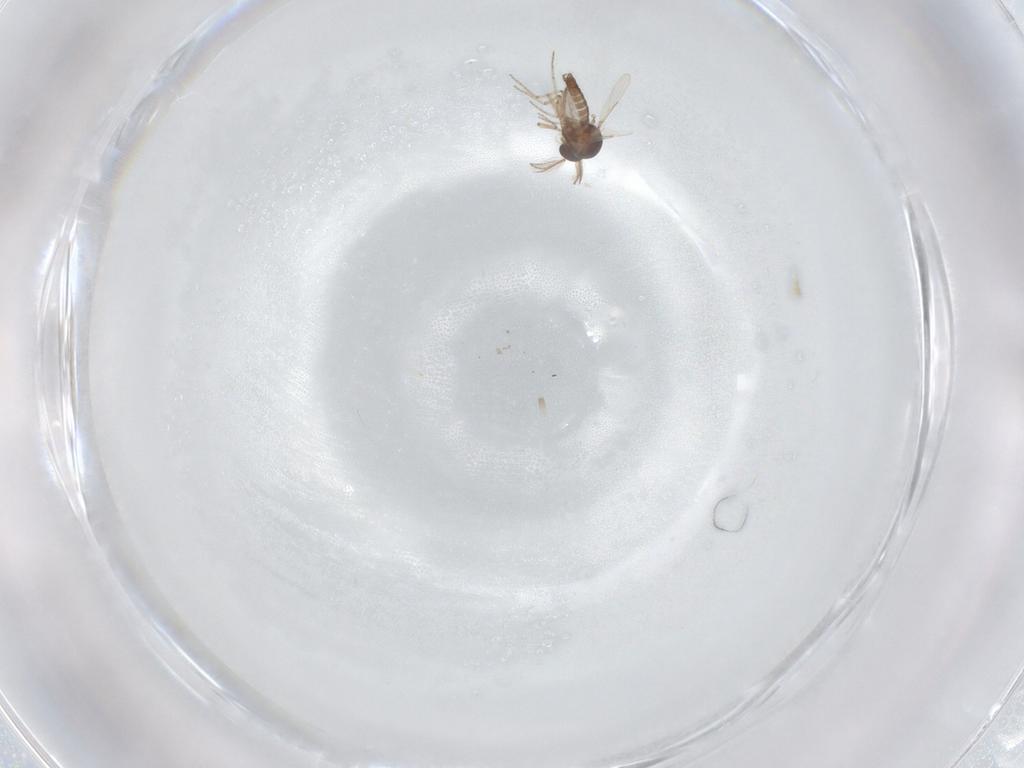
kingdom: Animalia
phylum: Arthropoda
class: Insecta
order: Diptera
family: Ceratopogonidae
